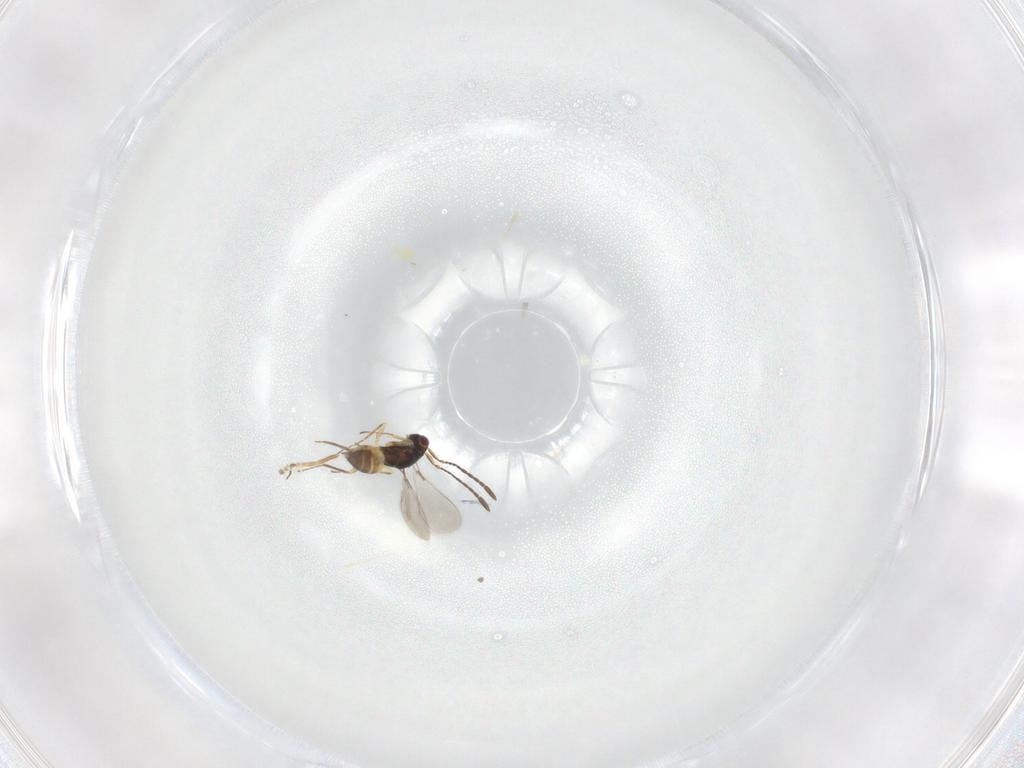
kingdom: Animalia
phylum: Arthropoda
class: Insecta
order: Hymenoptera
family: Mymaridae
